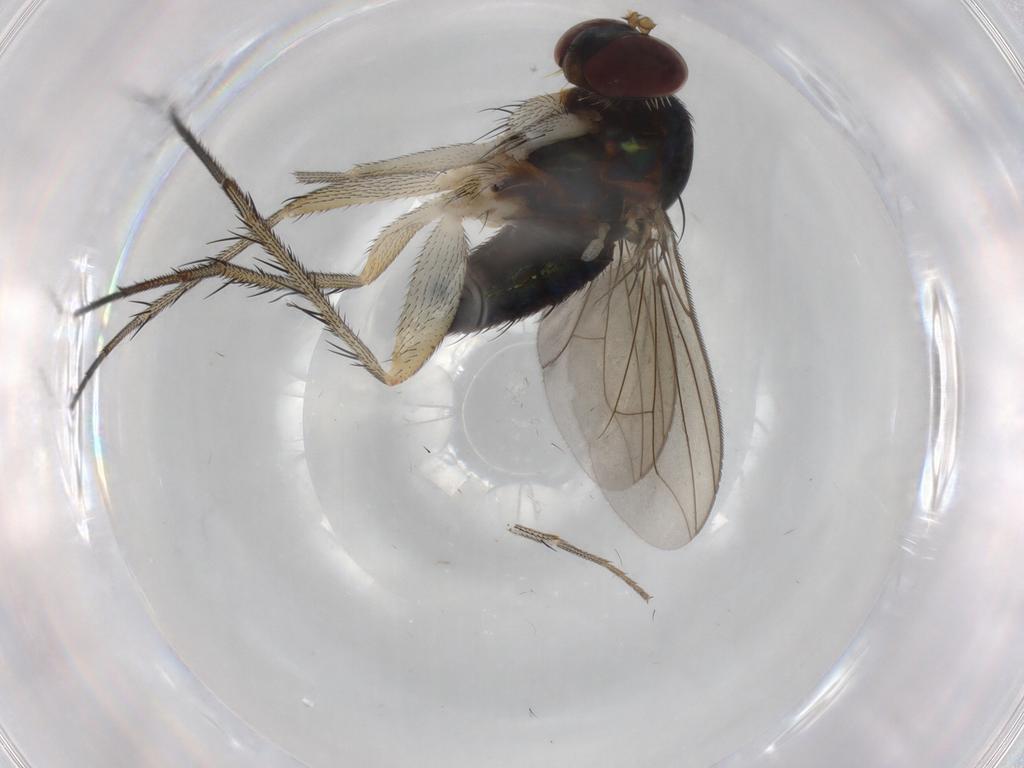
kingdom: Animalia
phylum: Arthropoda
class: Insecta
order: Diptera
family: Dolichopodidae
